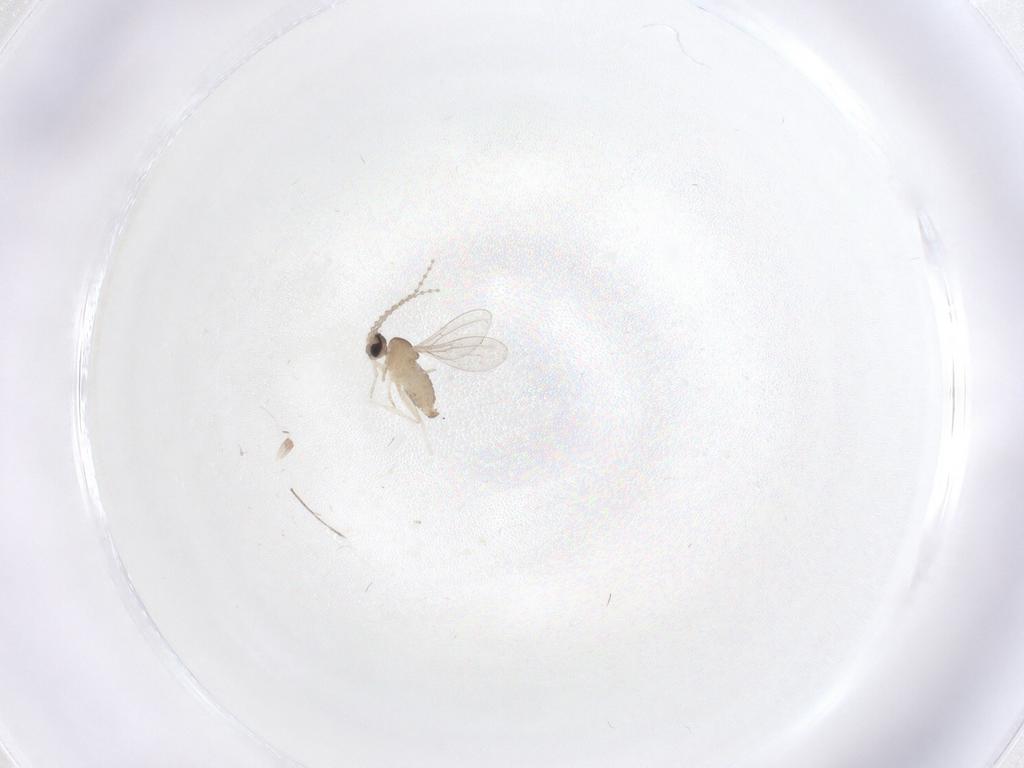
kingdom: Animalia
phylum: Arthropoda
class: Insecta
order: Diptera
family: Cecidomyiidae
